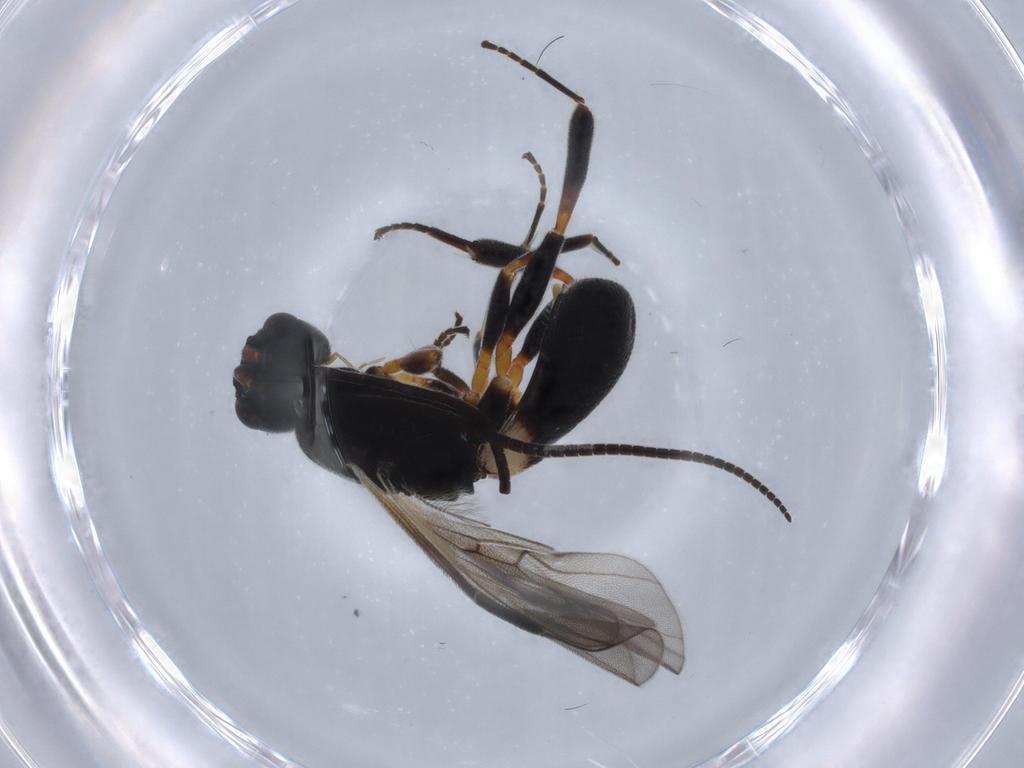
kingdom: Animalia
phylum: Arthropoda
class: Insecta
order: Hymenoptera
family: Braconidae
